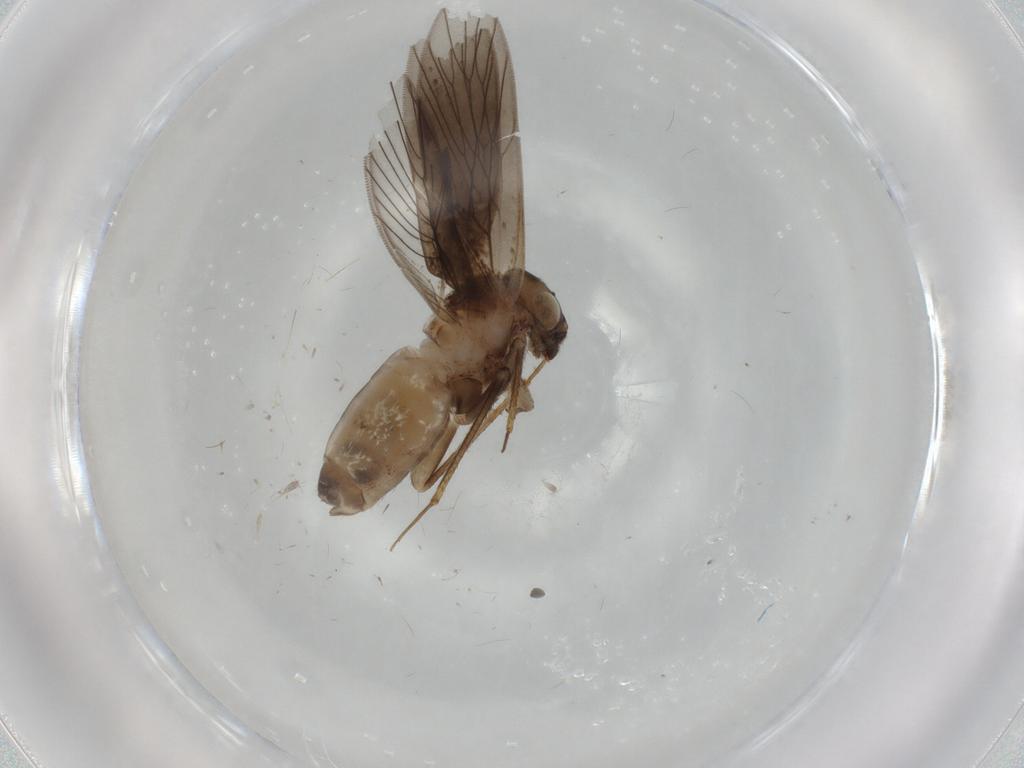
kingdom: Animalia
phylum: Arthropoda
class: Insecta
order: Psocodea
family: Lepidopsocidae
